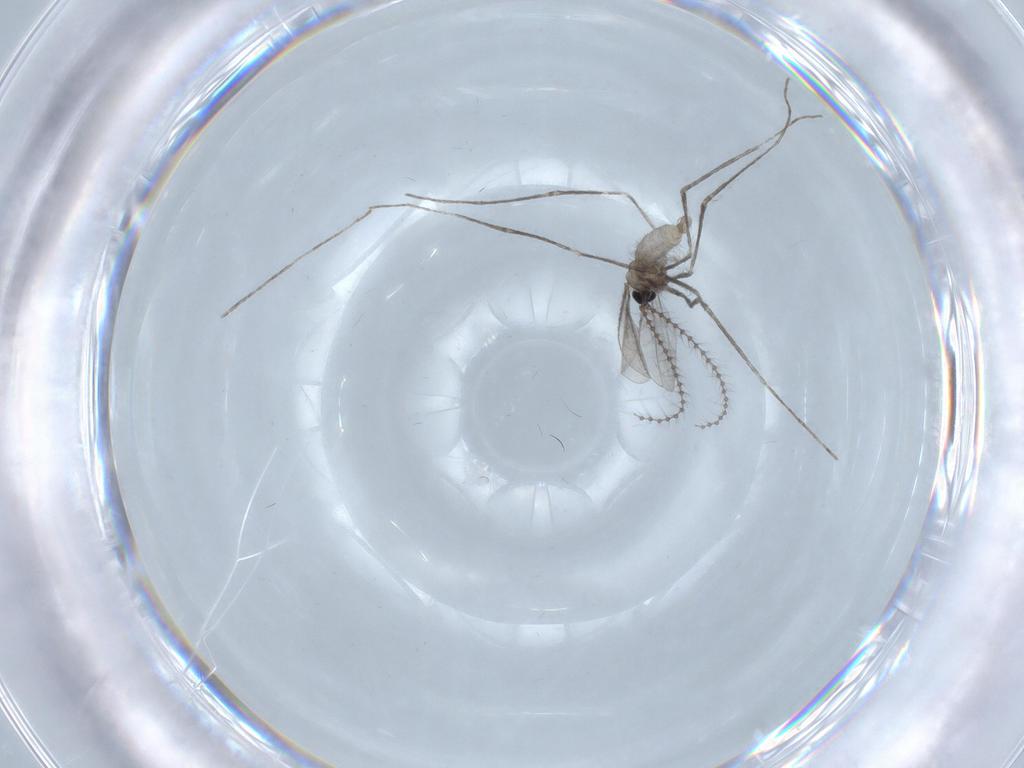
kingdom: Animalia
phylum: Arthropoda
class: Insecta
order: Diptera
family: Cecidomyiidae
